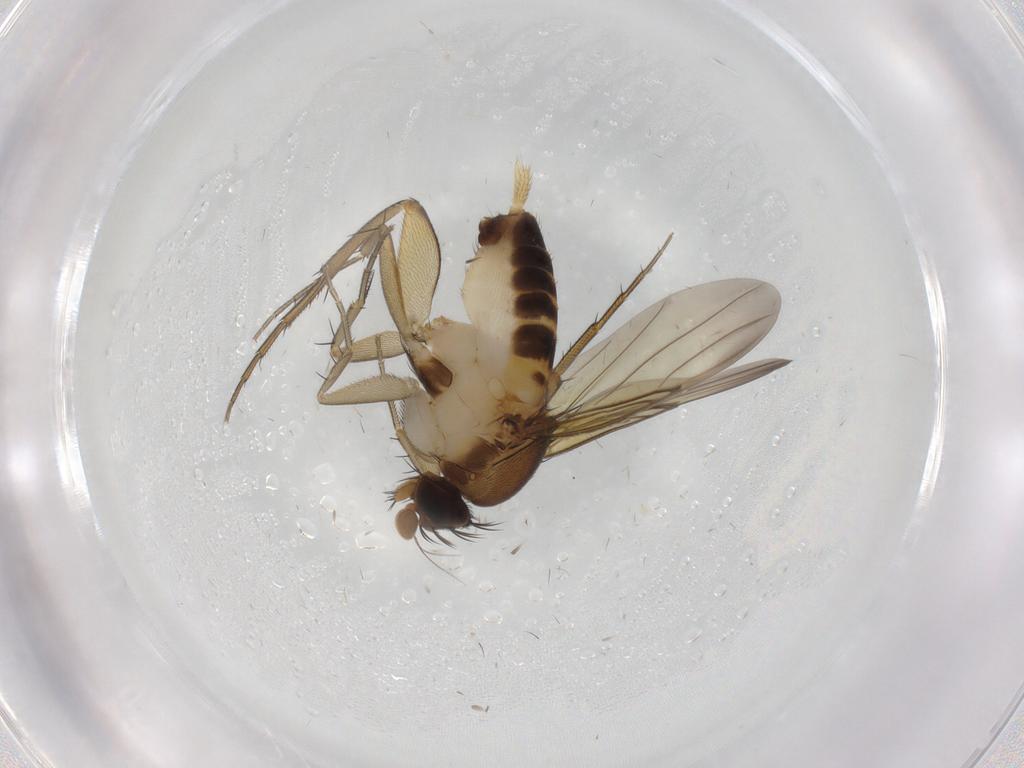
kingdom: Animalia
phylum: Arthropoda
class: Insecta
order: Diptera
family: Phoridae
